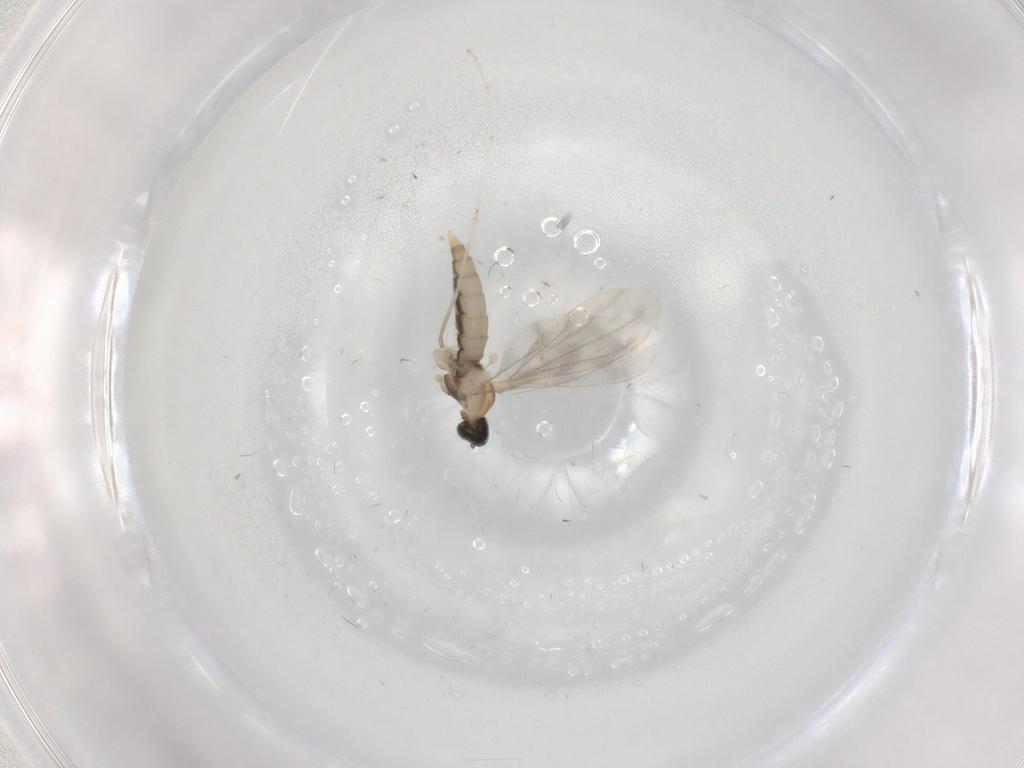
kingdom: Animalia
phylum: Arthropoda
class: Insecta
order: Diptera
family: Cecidomyiidae
